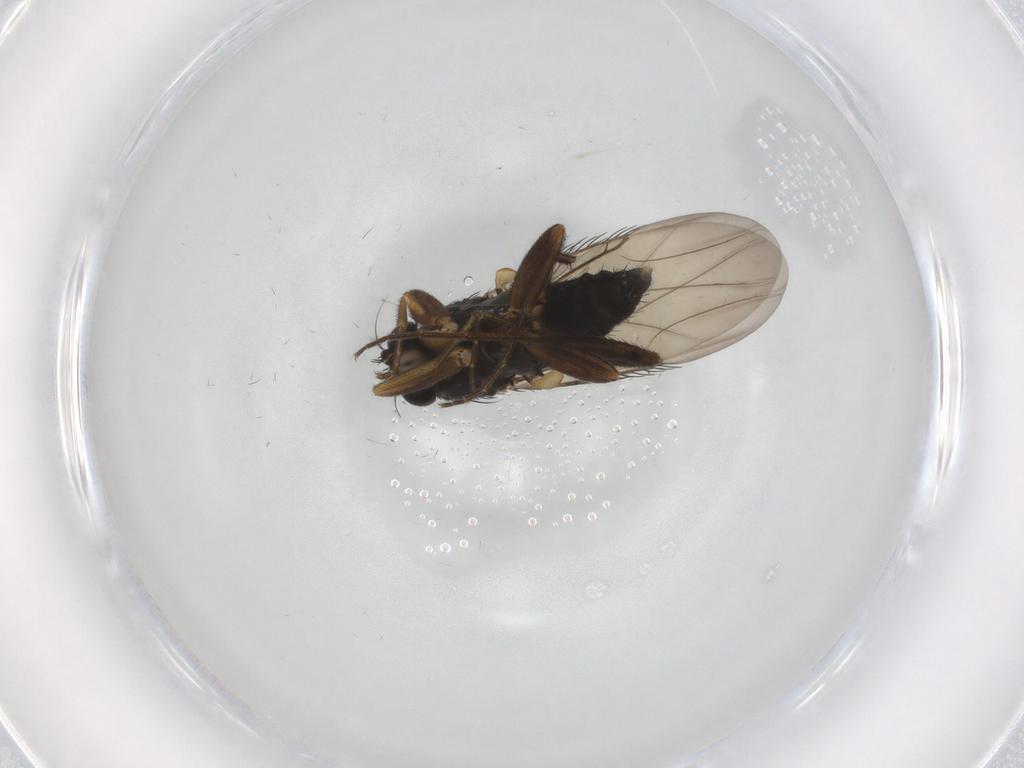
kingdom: Animalia
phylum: Arthropoda
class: Insecta
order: Diptera
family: Phoridae
